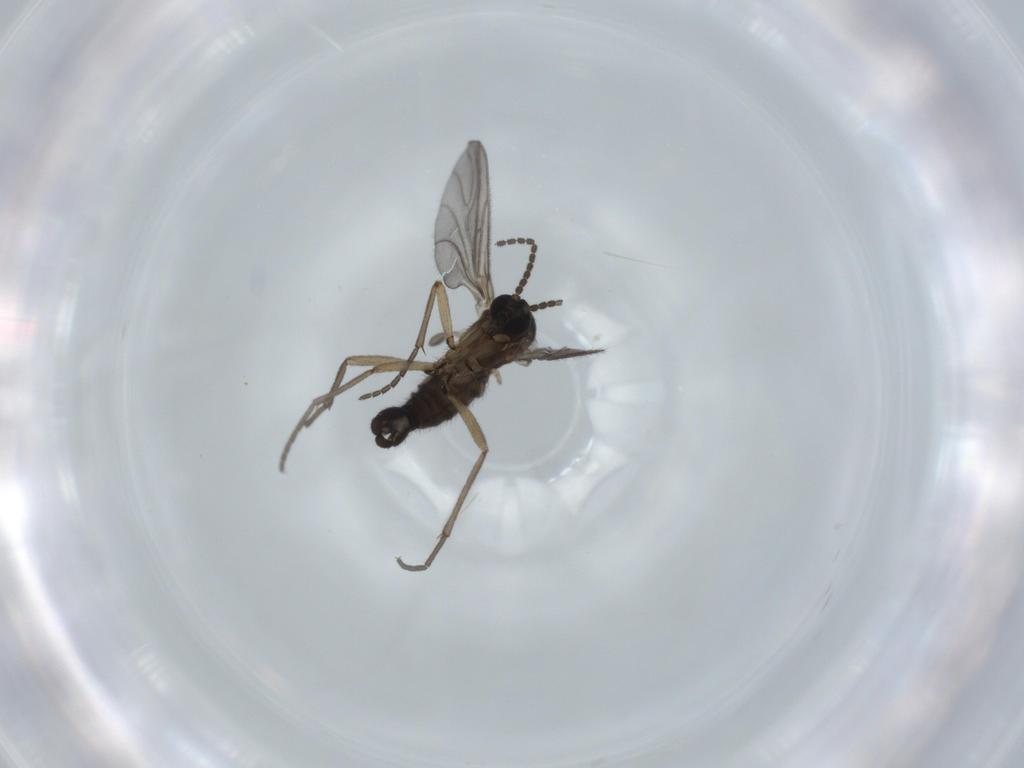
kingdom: Animalia
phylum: Arthropoda
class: Insecta
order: Diptera
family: Sciaridae
